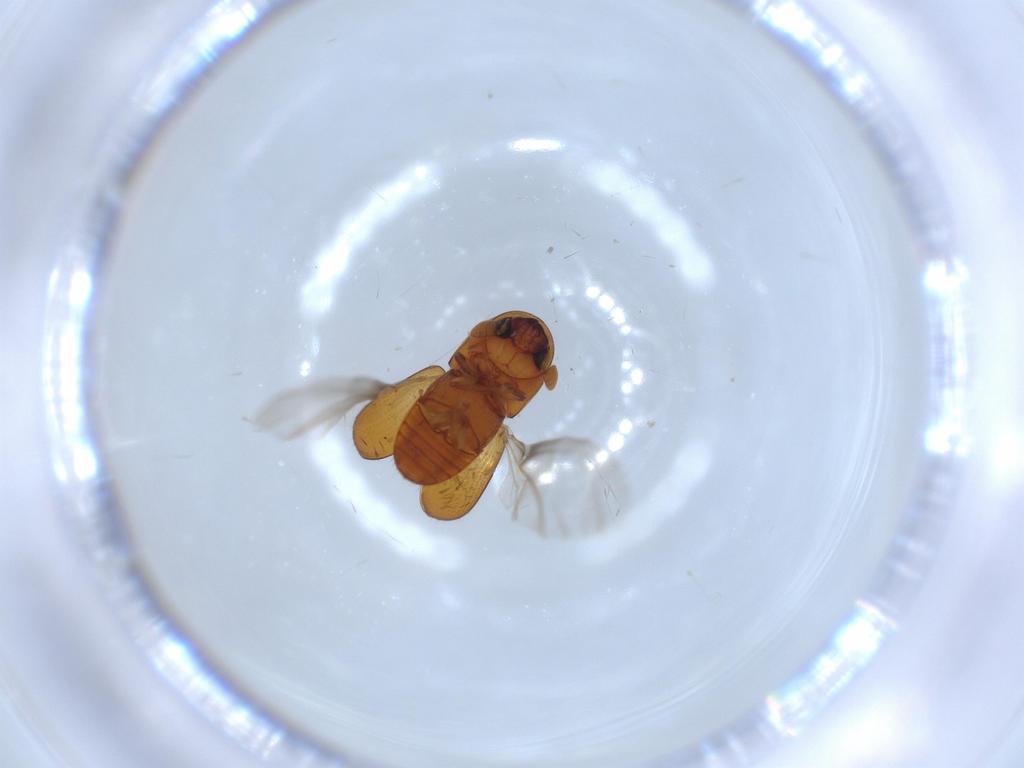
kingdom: Animalia
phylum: Arthropoda
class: Insecta
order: Coleoptera
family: Curculionidae
